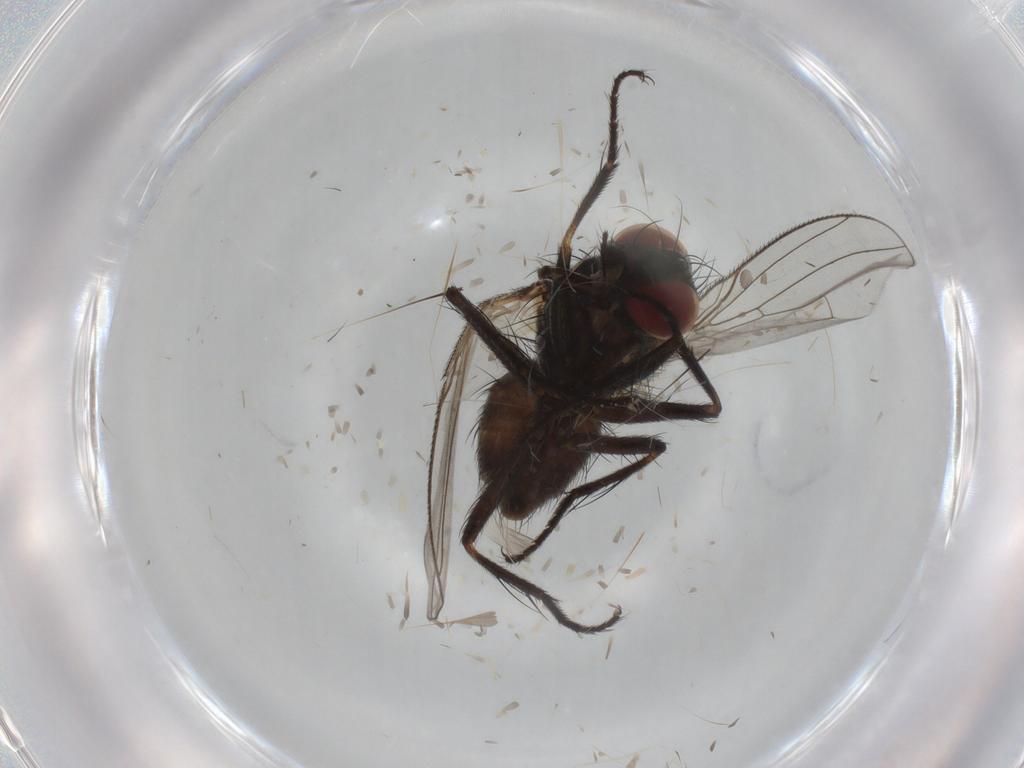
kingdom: Animalia
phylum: Arthropoda
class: Insecta
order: Diptera
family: Muscidae
